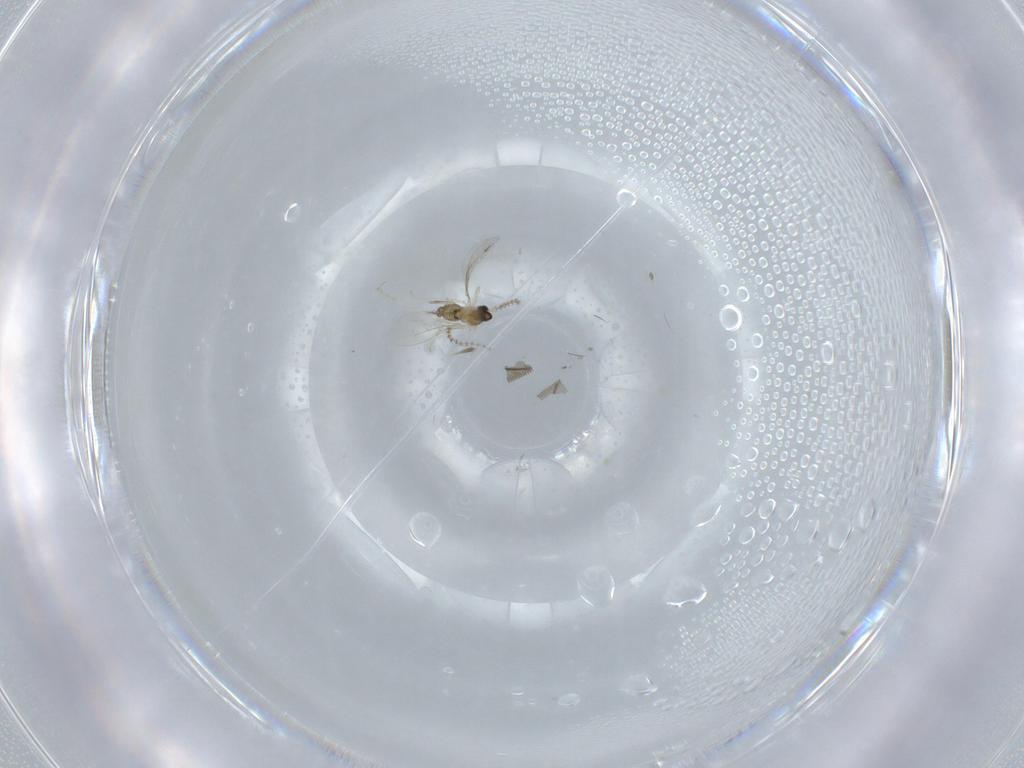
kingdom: Animalia
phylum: Arthropoda
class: Insecta
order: Diptera
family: Cecidomyiidae
